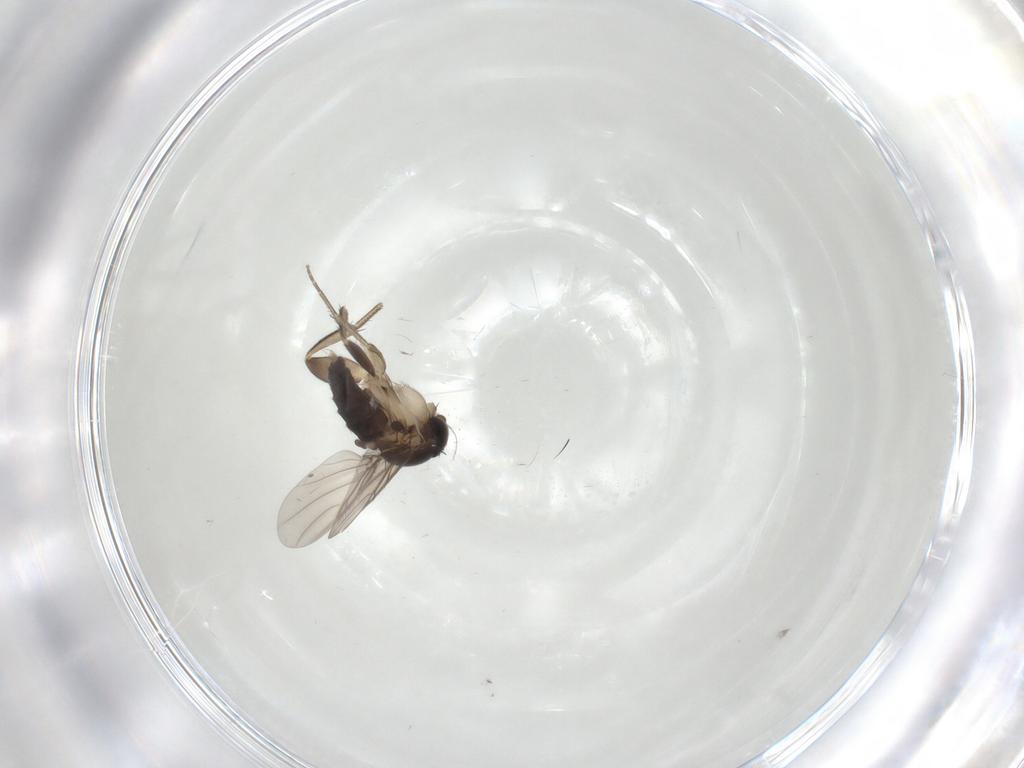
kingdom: Animalia
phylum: Arthropoda
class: Insecta
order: Diptera
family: Phoridae
